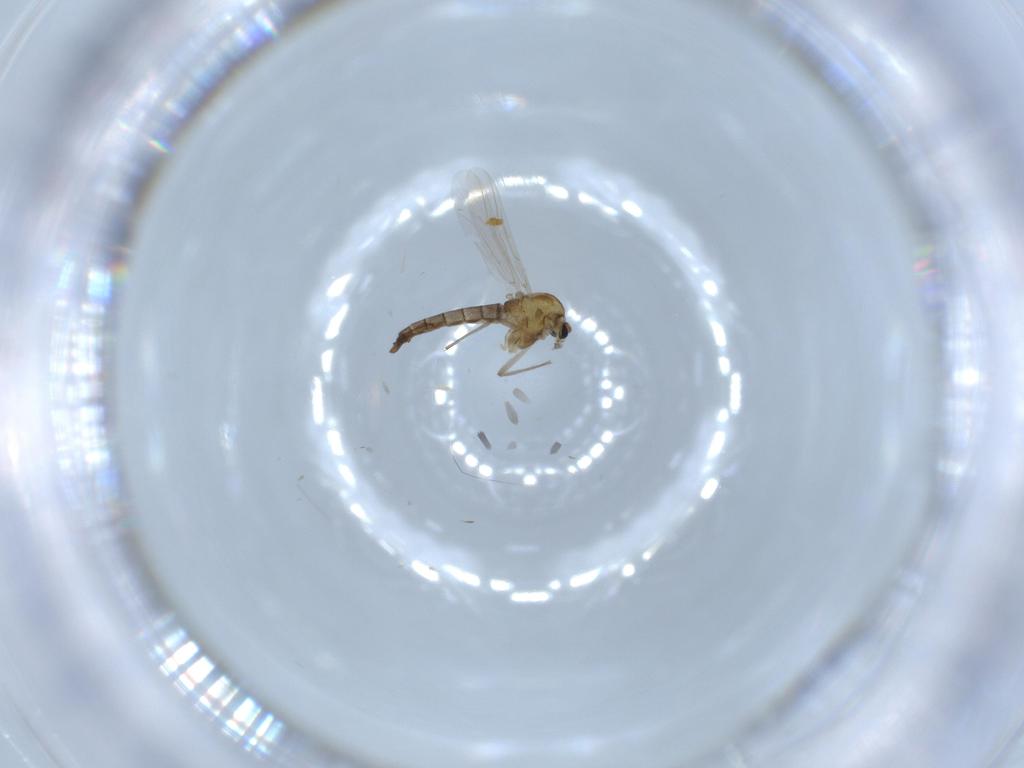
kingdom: Animalia
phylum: Arthropoda
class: Insecta
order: Diptera
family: Chironomidae
